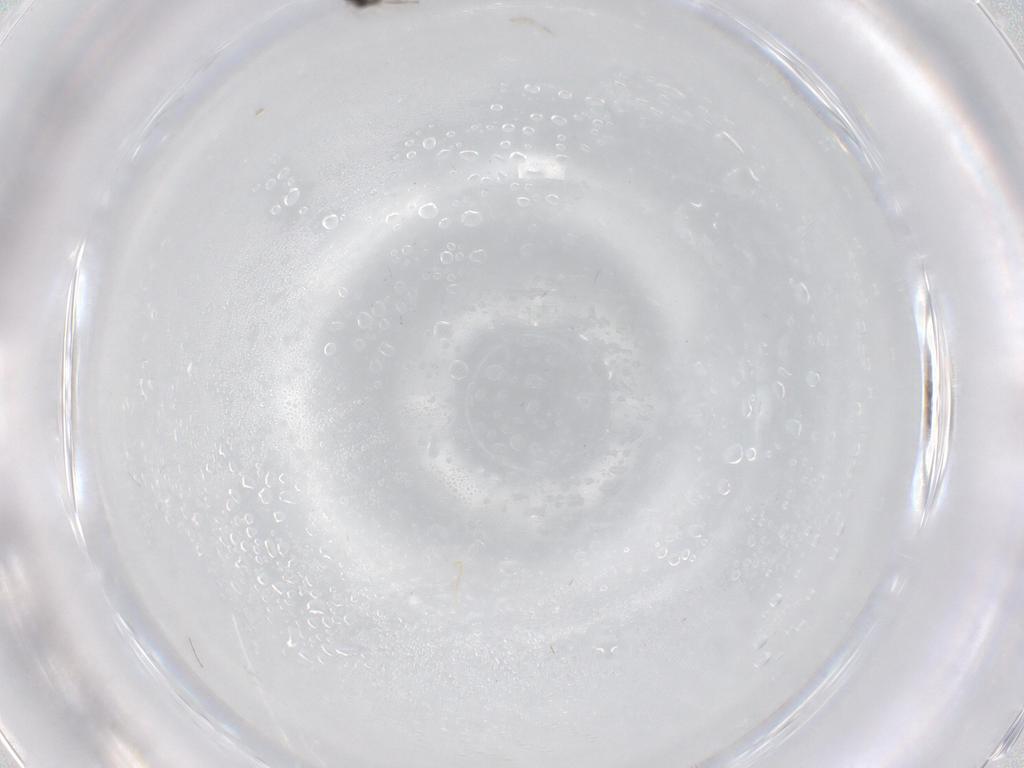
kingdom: Animalia
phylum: Arthropoda
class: Insecta
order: Diptera
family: Cecidomyiidae
